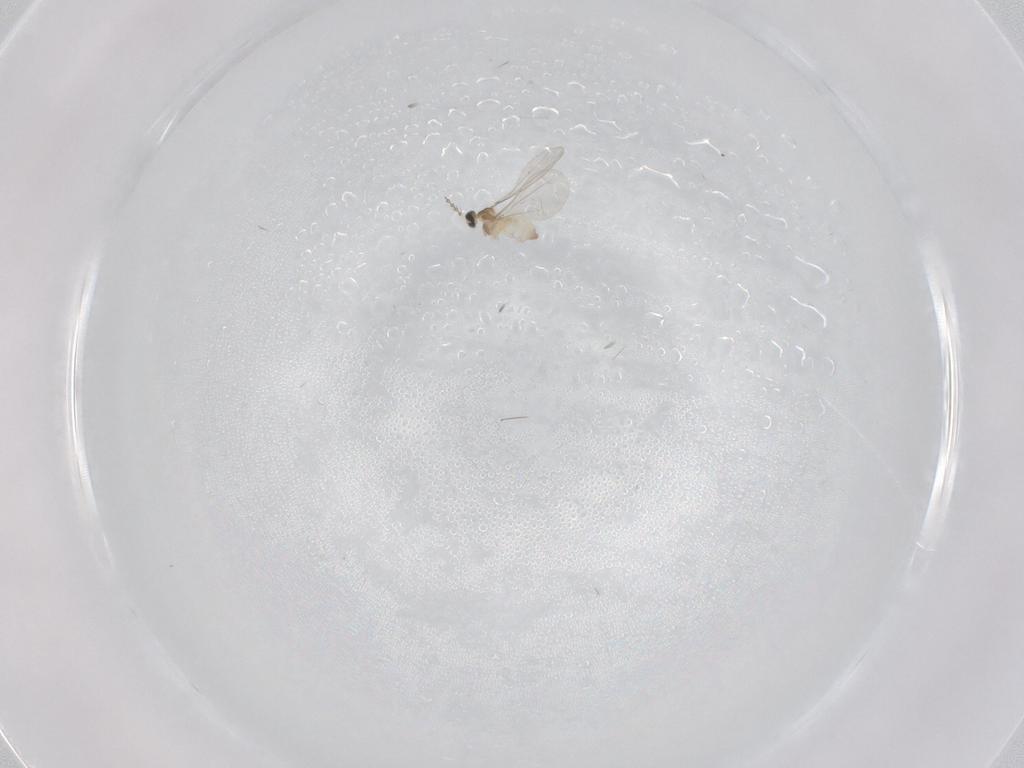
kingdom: Animalia
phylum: Arthropoda
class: Insecta
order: Diptera
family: Cecidomyiidae
